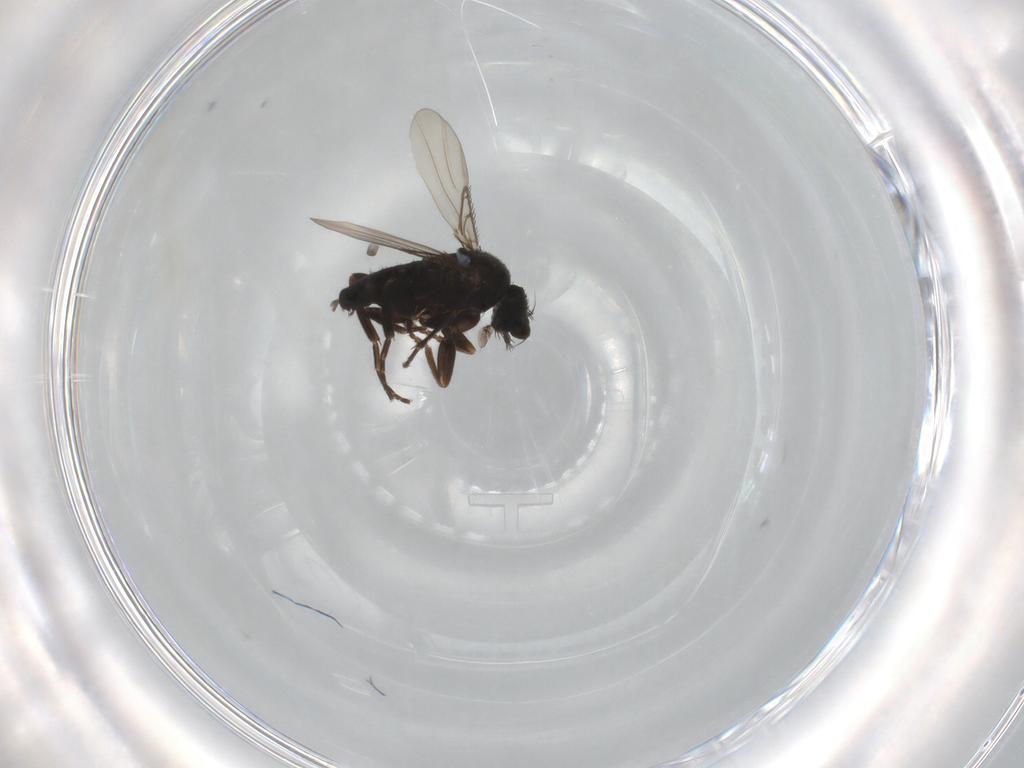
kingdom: Animalia
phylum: Arthropoda
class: Insecta
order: Diptera
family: Phoridae
